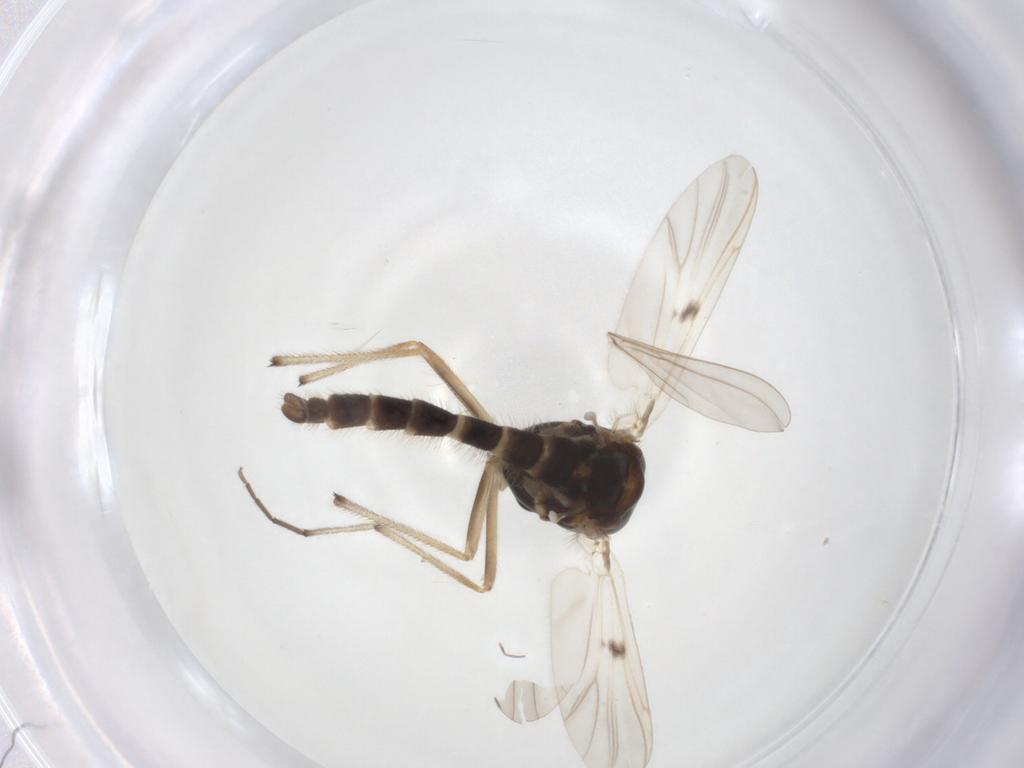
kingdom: Animalia
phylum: Arthropoda
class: Insecta
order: Diptera
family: Chironomidae
